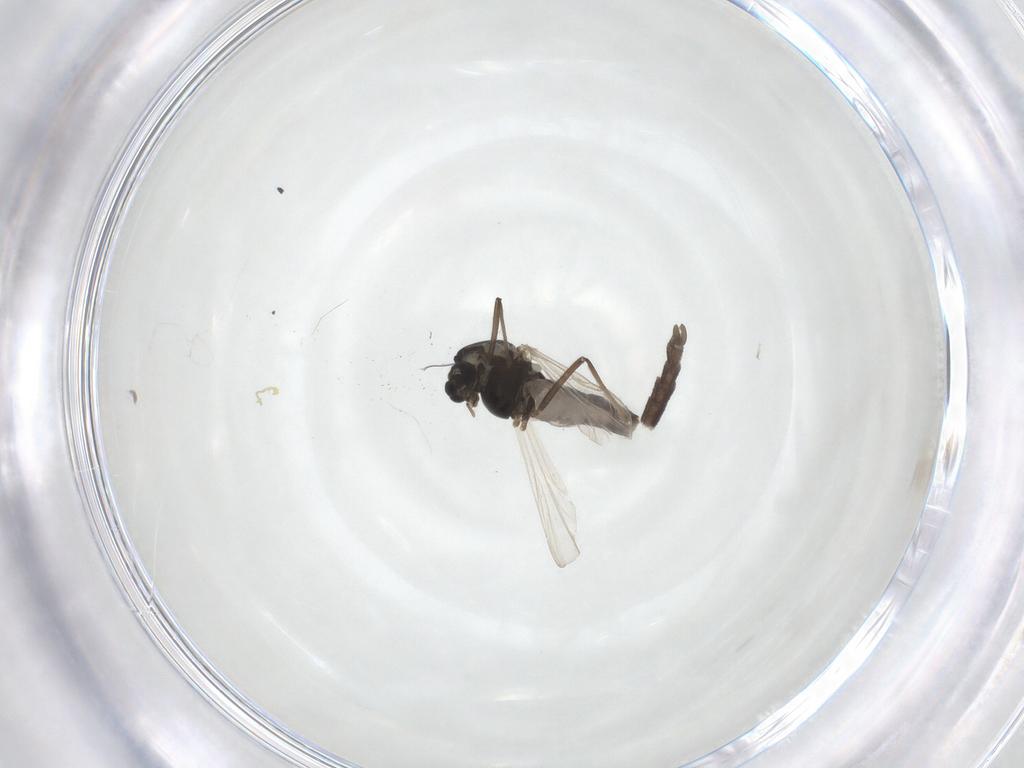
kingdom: Animalia
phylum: Arthropoda
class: Insecta
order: Diptera
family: Chironomidae
